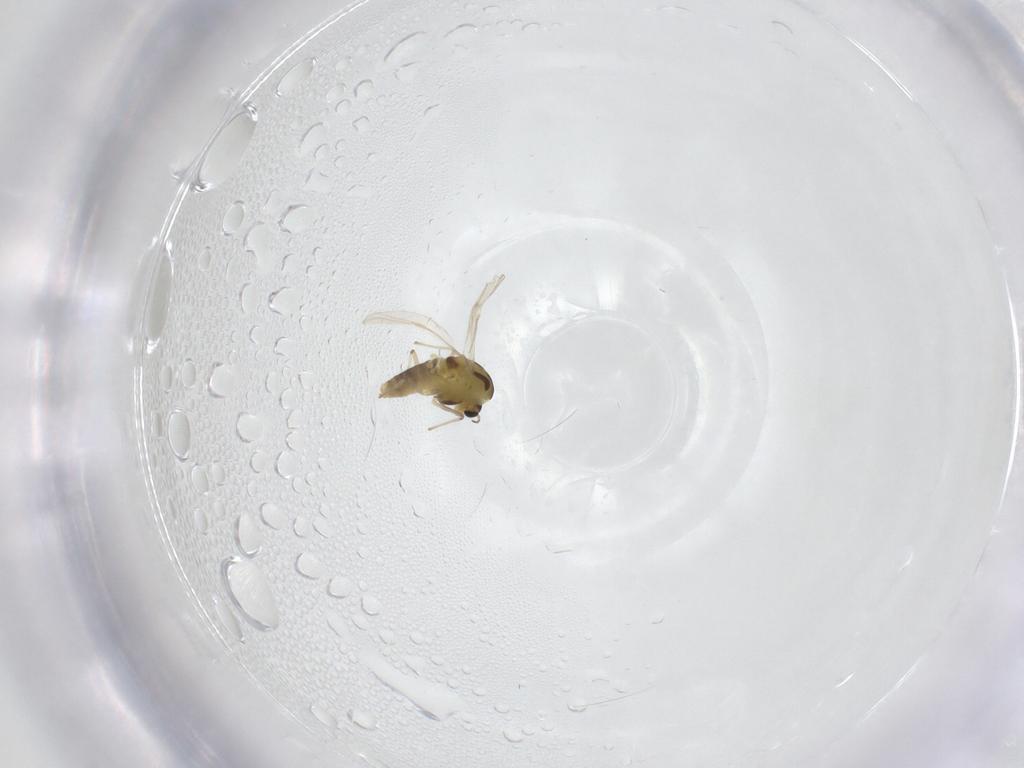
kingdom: Animalia
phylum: Arthropoda
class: Insecta
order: Diptera
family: Chironomidae
